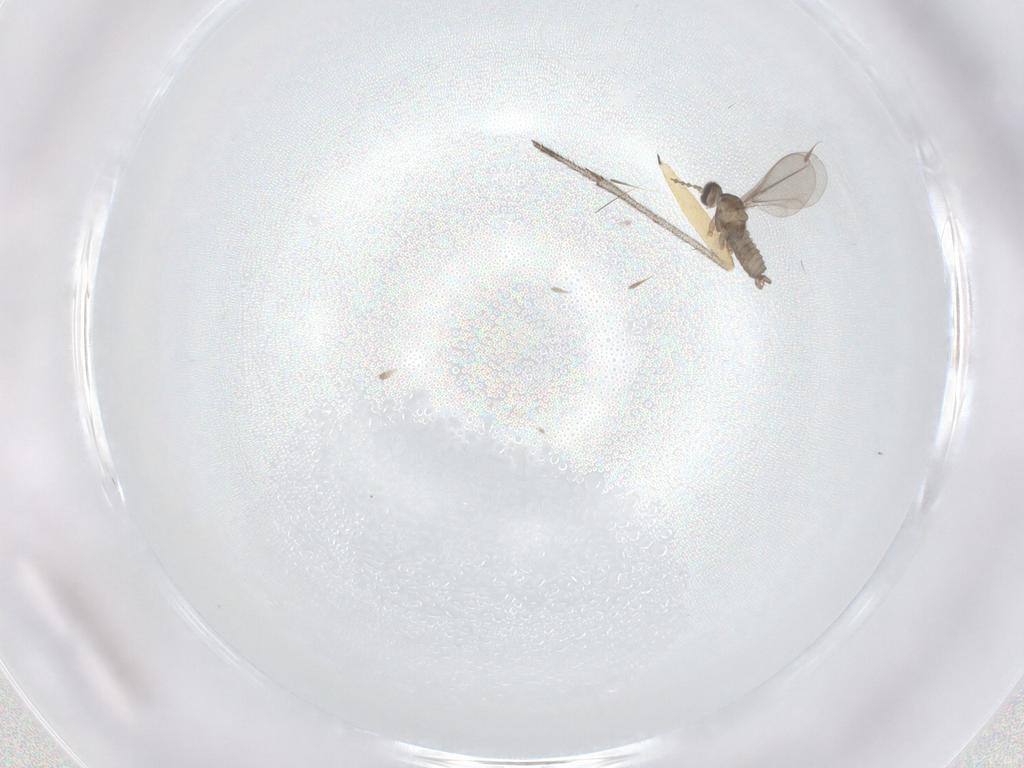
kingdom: Animalia
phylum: Arthropoda
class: Insecta
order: Diptera
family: Cecidomyiidae
